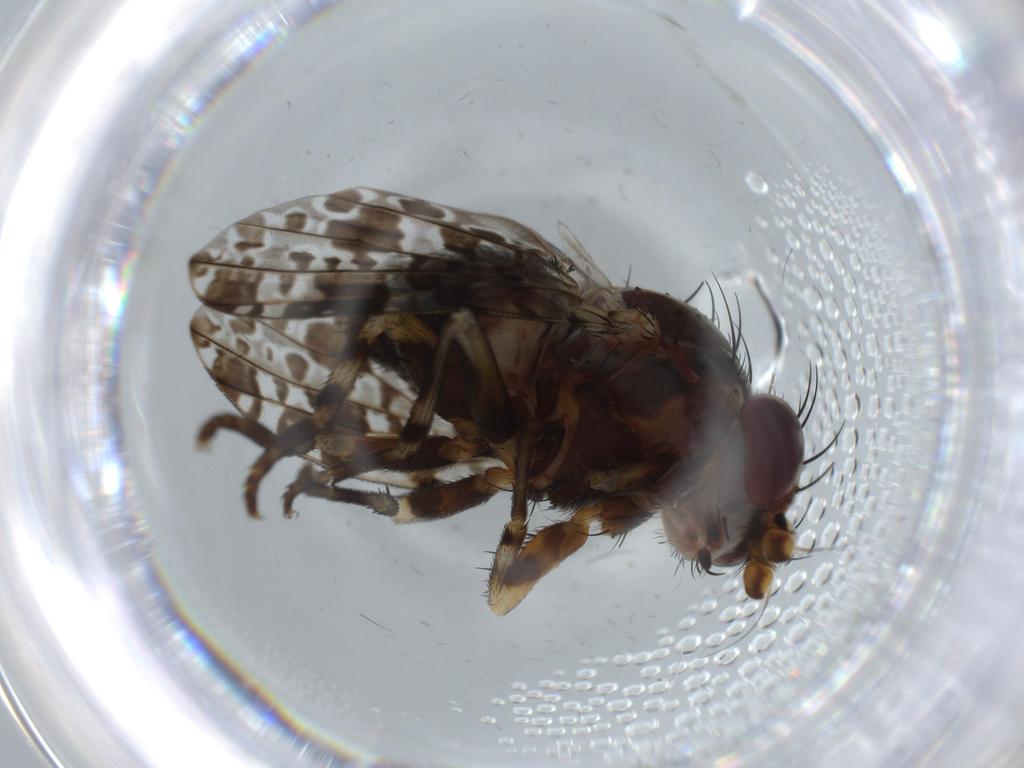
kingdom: Animalia
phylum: Arthropoda
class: Insecta
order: Diptera
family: Odiniidae
